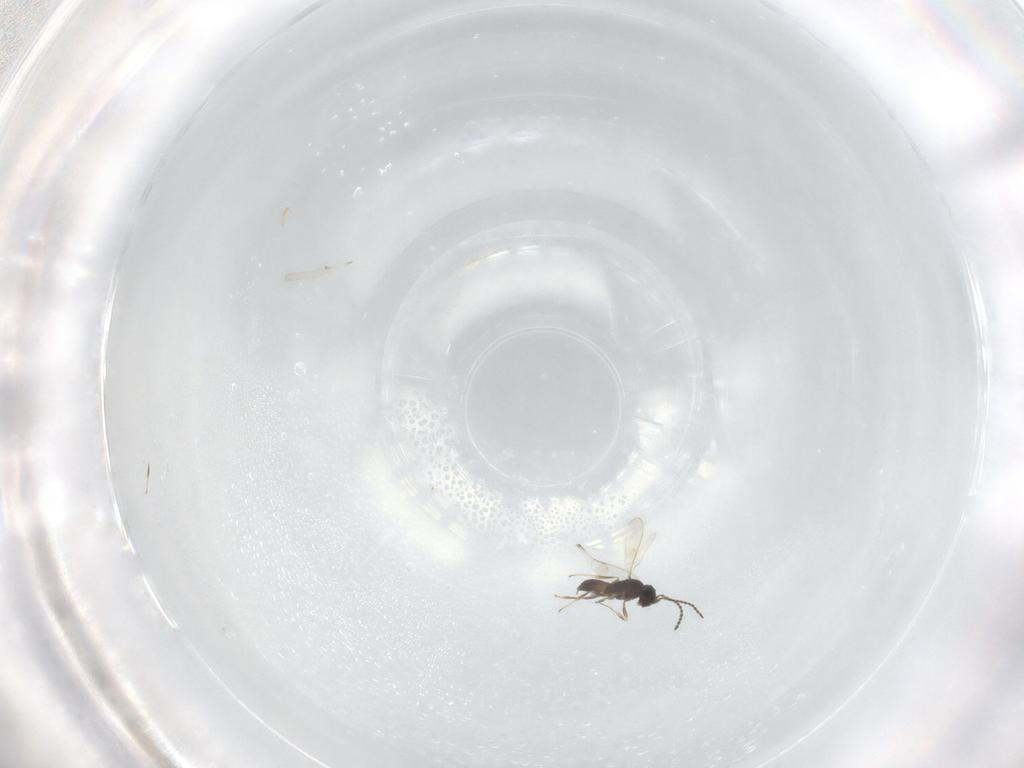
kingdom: Animalia
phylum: Arthropoda
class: Insecta
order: Hymenoptera
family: Scelionidae
